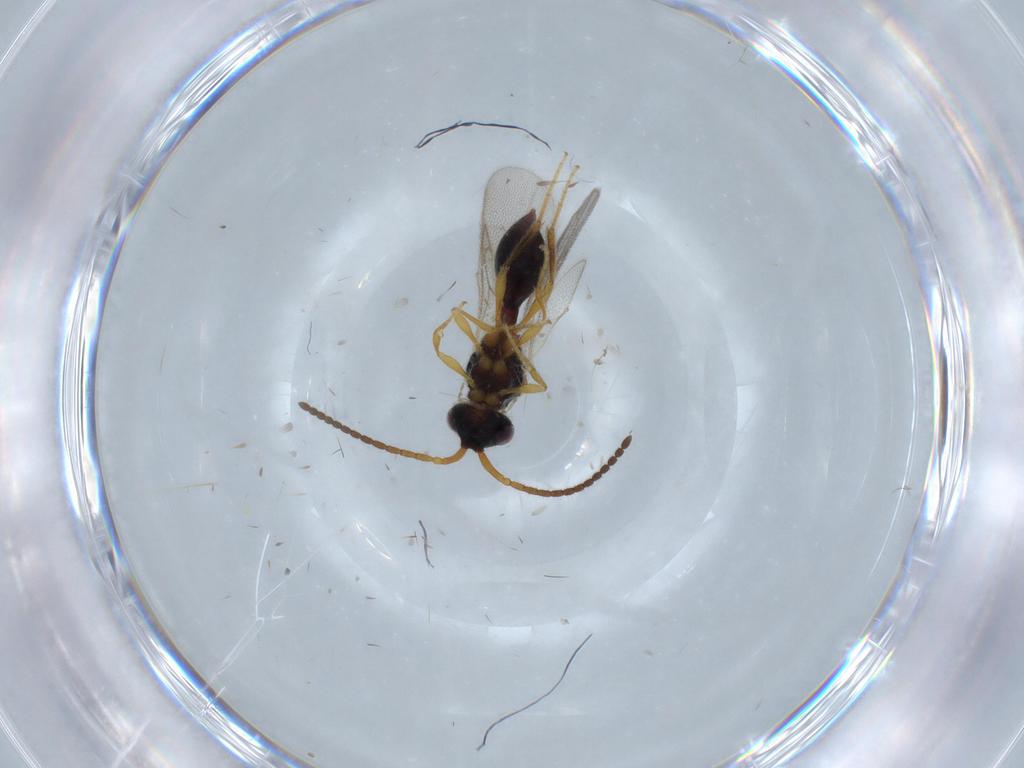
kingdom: Animalia
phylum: Arthropoda
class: Insecta
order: Hymenoptera
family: Diapriidae
